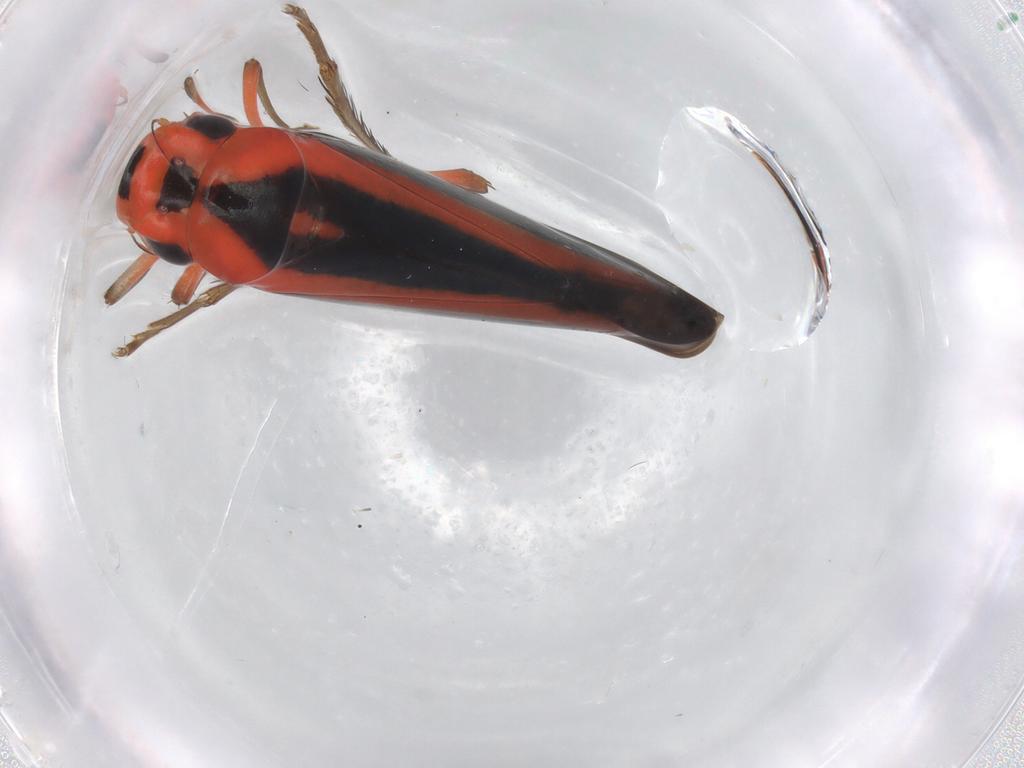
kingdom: Animalia
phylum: Arthropoda
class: Insecta
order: Hemiptera
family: Cicadellidae
